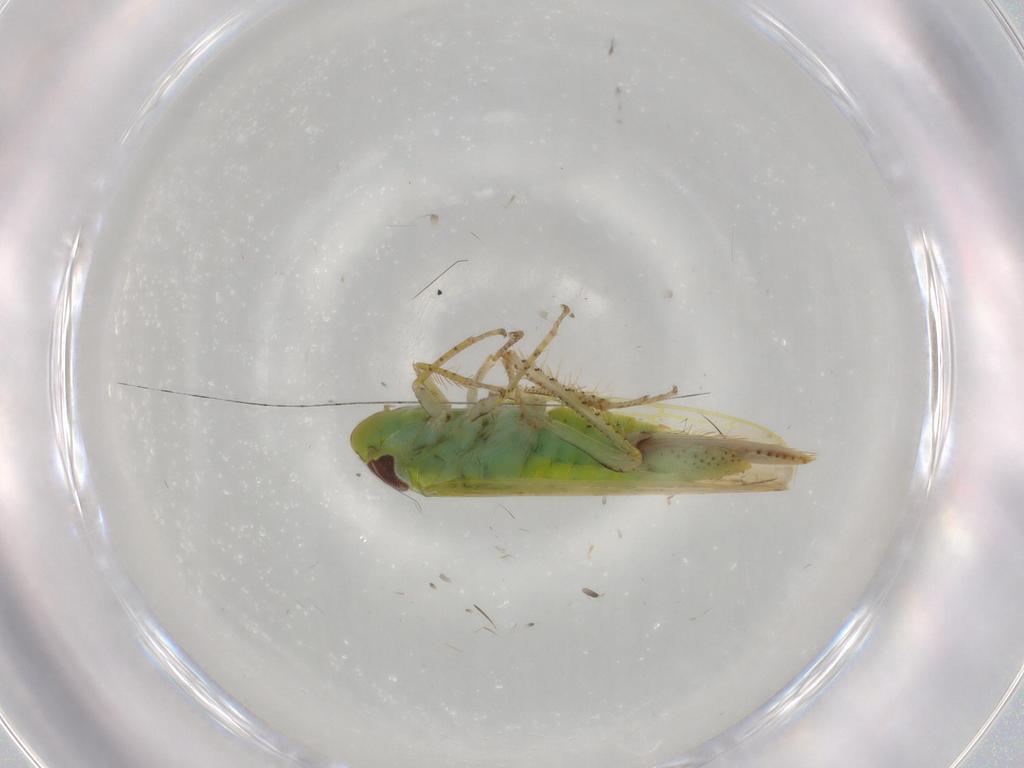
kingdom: Animalia
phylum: Arthropoda
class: Insecta
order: Hemiptera
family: Cicadellidae
